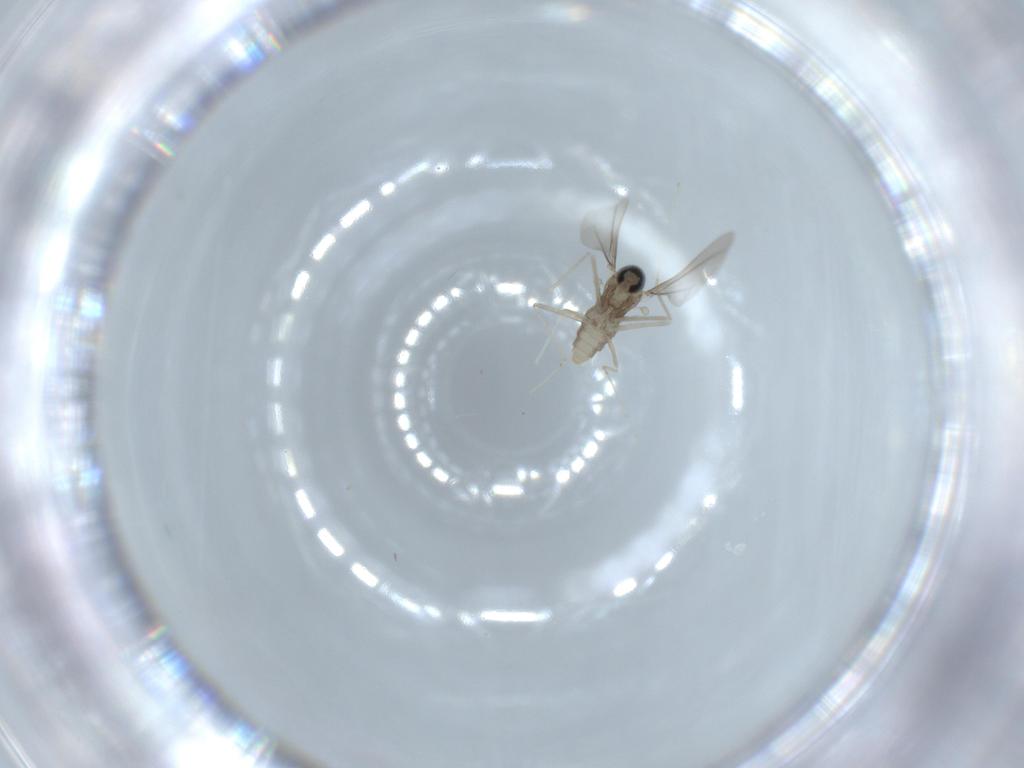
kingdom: Animalia
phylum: Arthropoda
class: Insecta
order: Diptera
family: Cecidomyiidae
